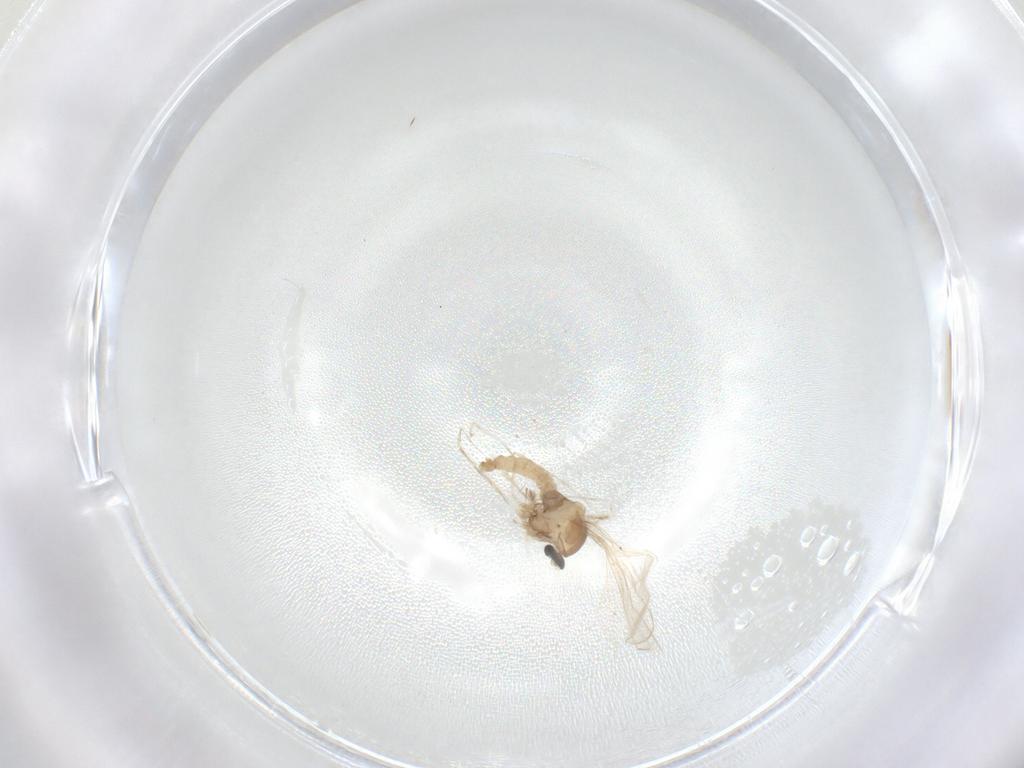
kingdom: Animalia
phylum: Arthropoda
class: Insecta
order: Diptera
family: Cecidomyiidae
